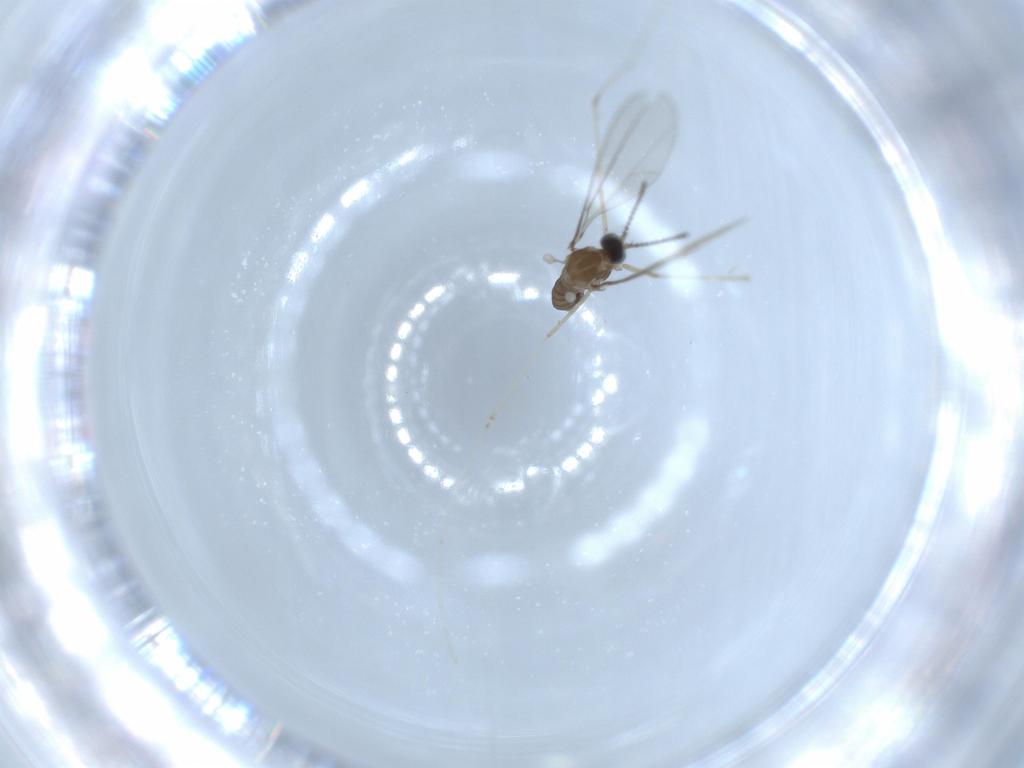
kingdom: Animalia
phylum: Arthropoda
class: Insecta
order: Diptera
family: Cecidomyiidae
